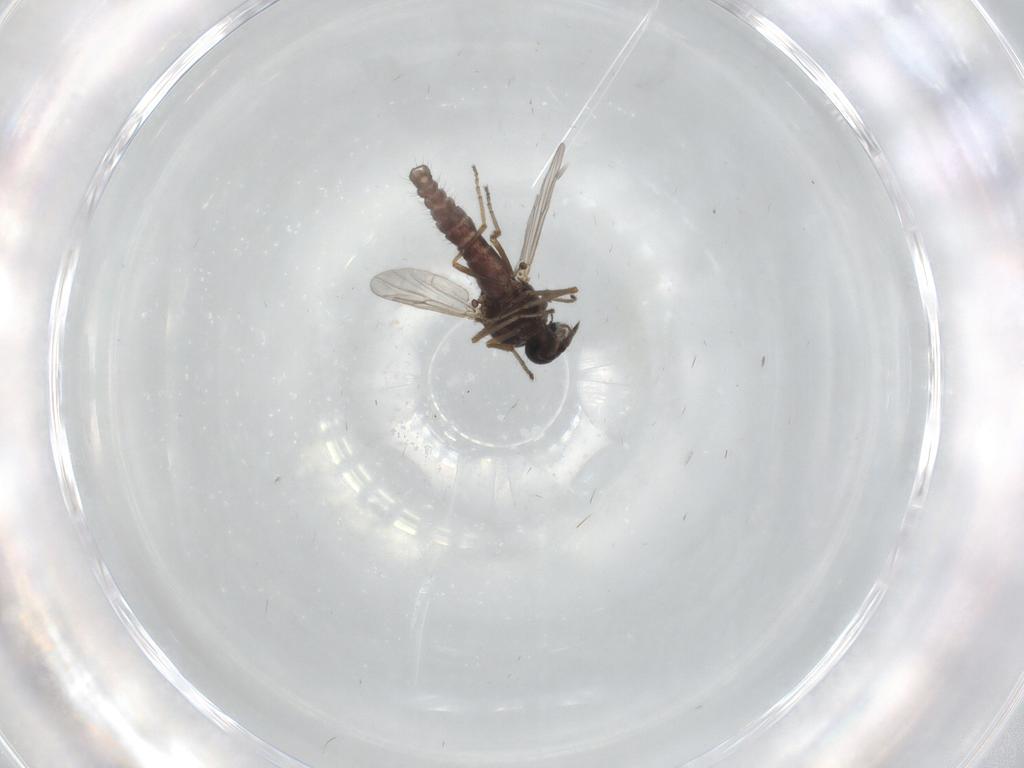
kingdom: Animalia
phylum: Arthropoda
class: Insecta
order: Diptera
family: Ceratopogonidae
